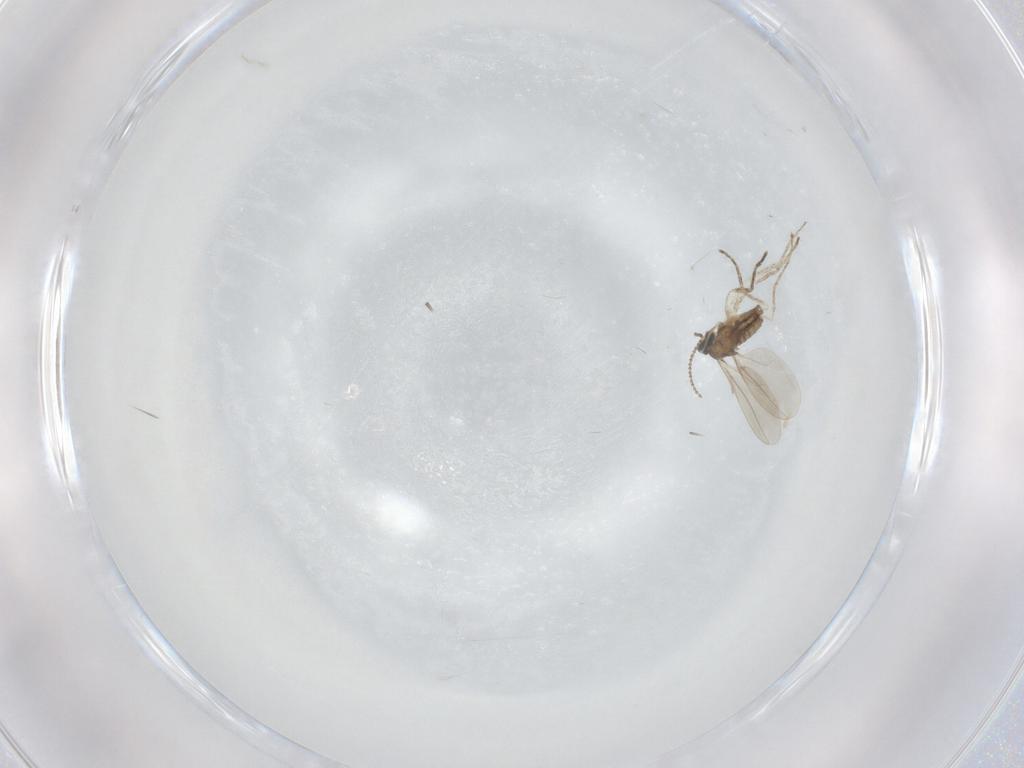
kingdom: Animalia
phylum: Arthropoda
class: Insecta
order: Diptera
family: Cecidomyiidae
